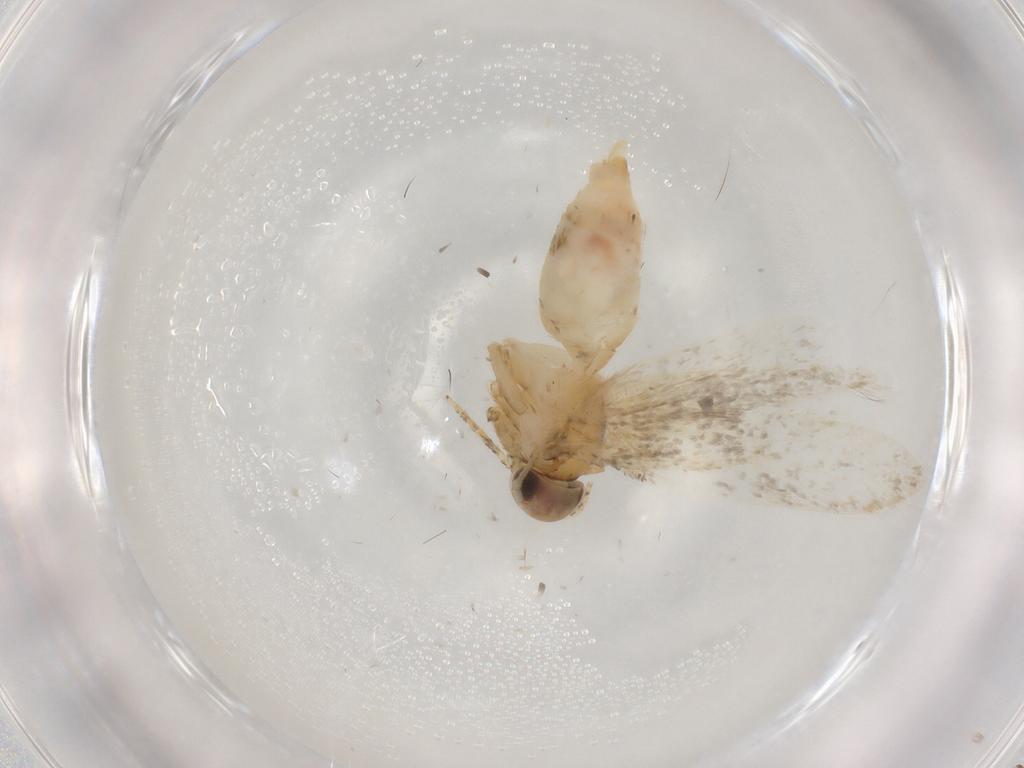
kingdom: Animalia
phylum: Arthropoda
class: Insecta
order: Lepidoptera
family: Noctuidae
